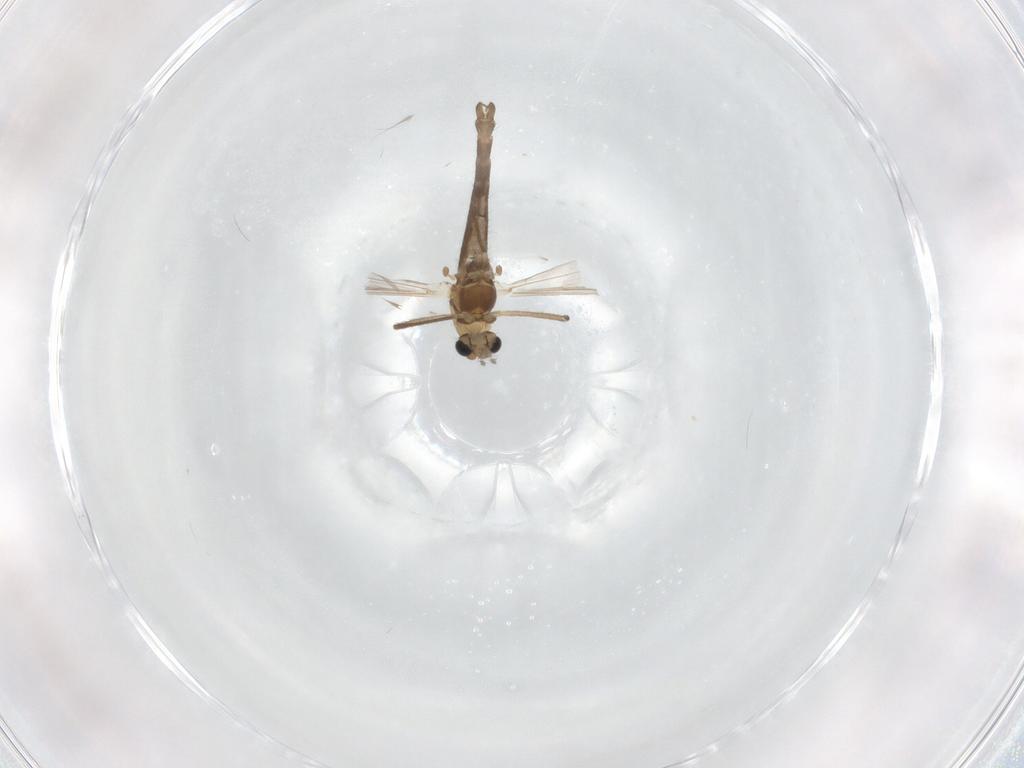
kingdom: Animalia
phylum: Arthropoda
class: Insecta
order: Diptera
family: Chironomidae
